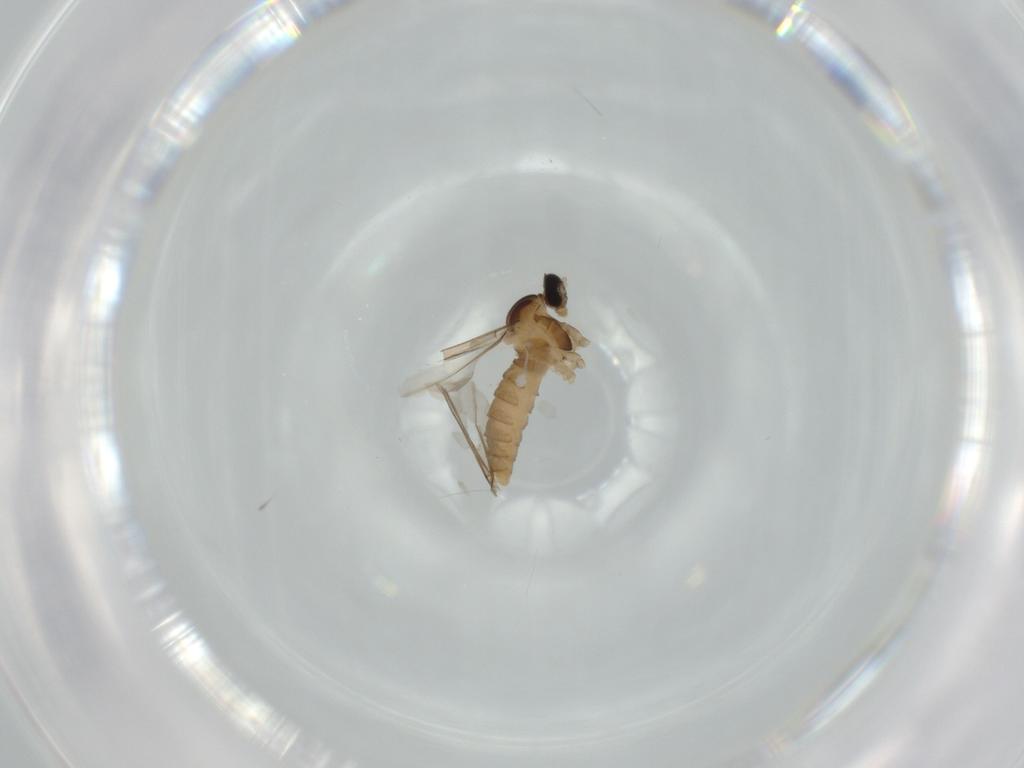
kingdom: Animalia
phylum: Arthropoda
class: Insecta
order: Diptera
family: Cecidomyiidae
